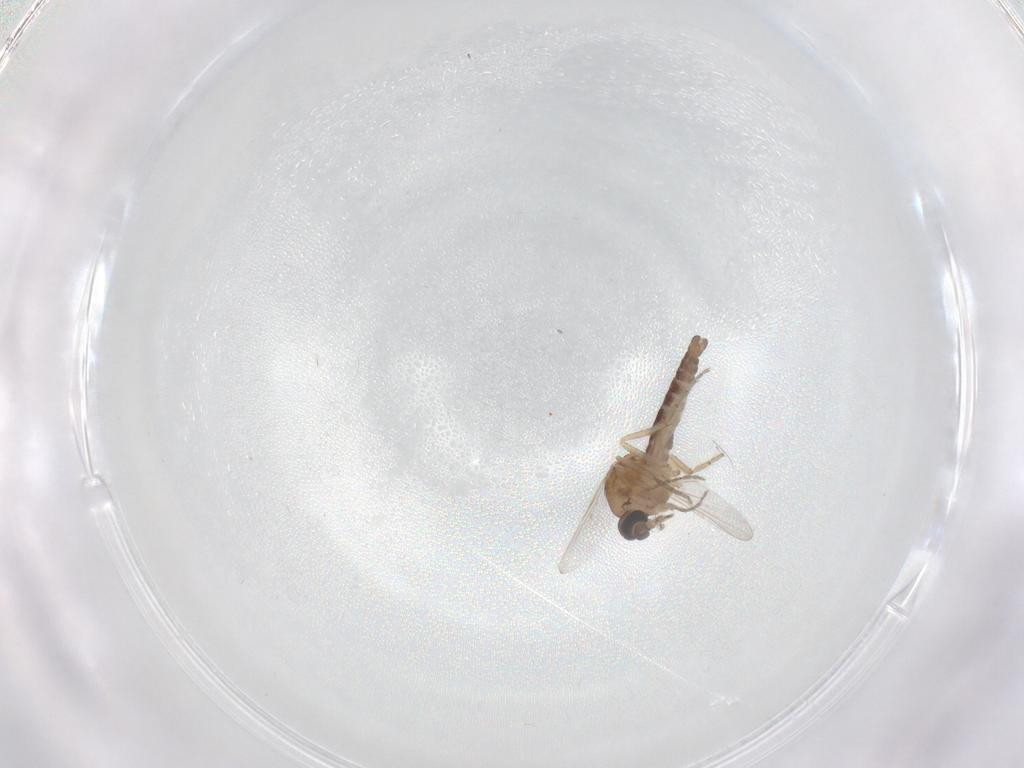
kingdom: Animalia
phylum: Arthropoda
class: Insecta
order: Diptera
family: Ceratopogonidae
